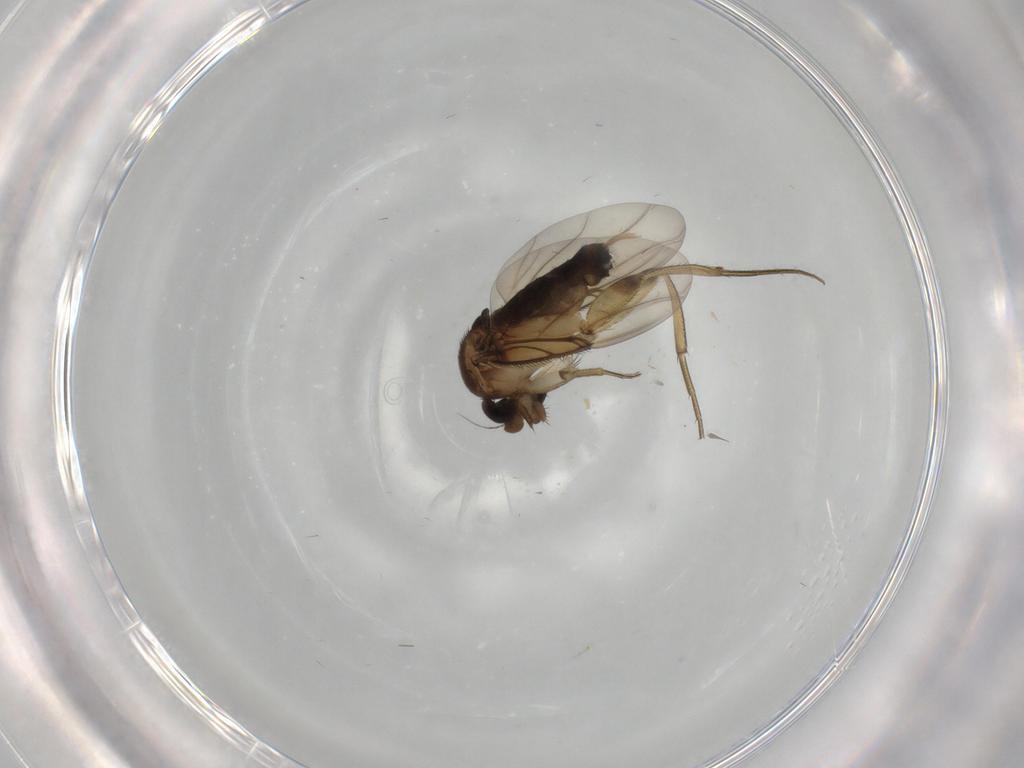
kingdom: Animalia
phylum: Arthropoda
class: Insecta
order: Diptera
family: Phoridae
